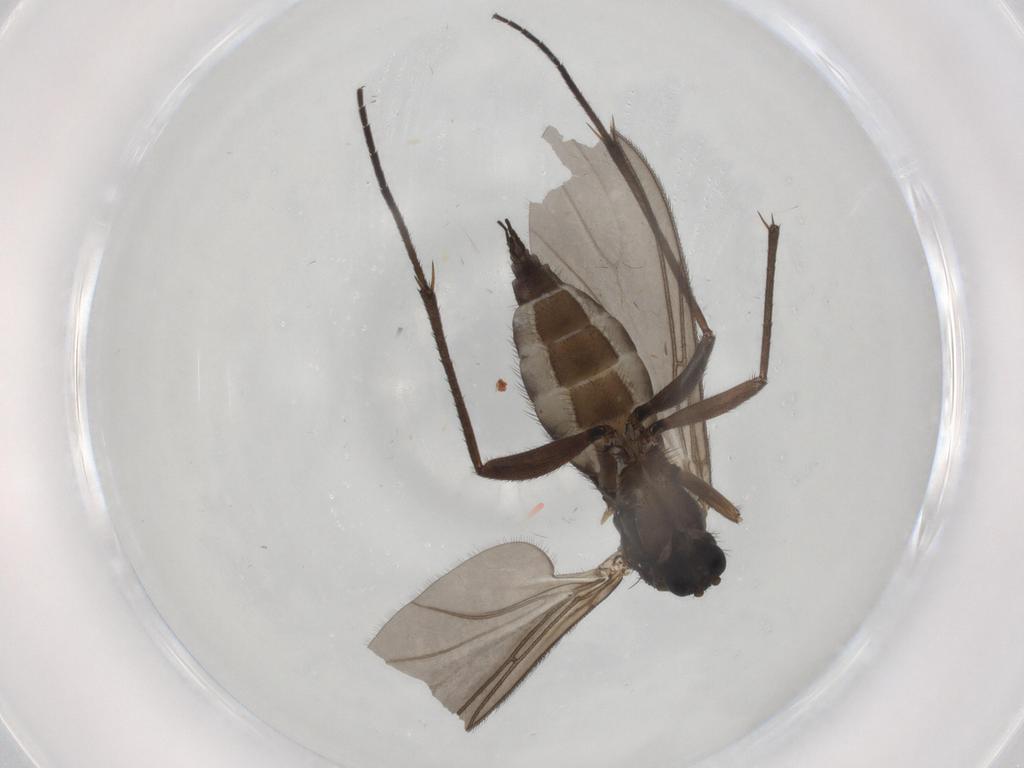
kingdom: Animalia
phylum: Arthropoda
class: Insecta
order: Diptera
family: Sciaridae
